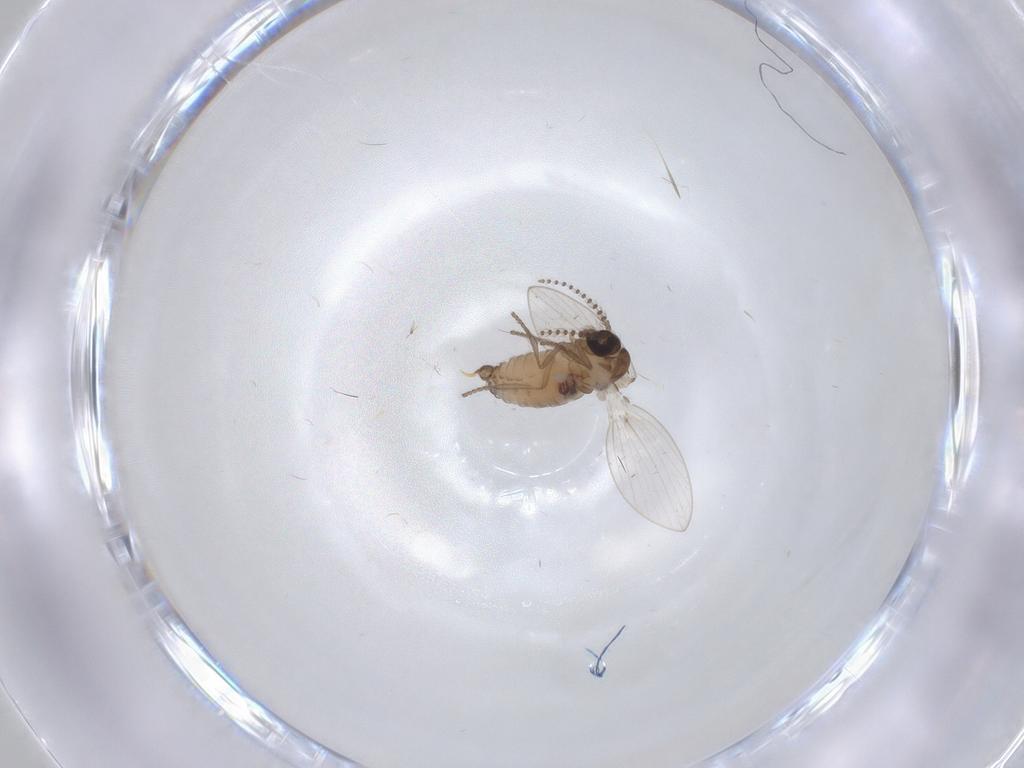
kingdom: Animalia
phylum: Arthropoda
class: Insecta
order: Diptera
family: Psychodidae
